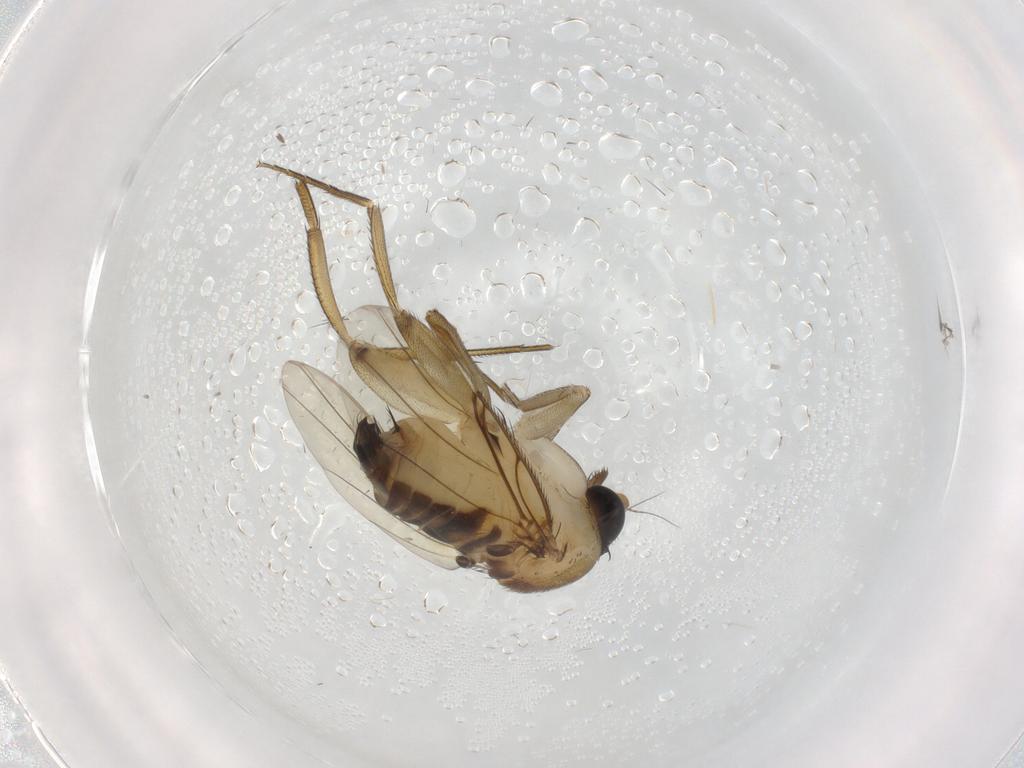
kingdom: Animalia
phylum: Arthropoda
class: Insecta
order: Diptera
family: Phoridae
